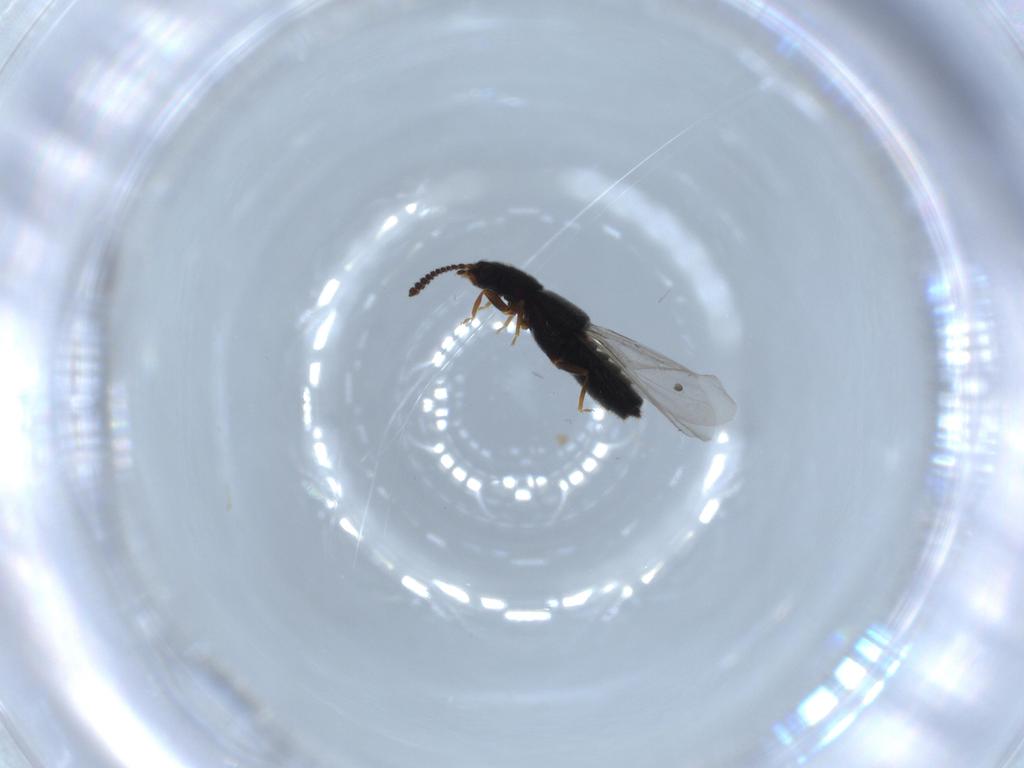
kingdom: Animalia
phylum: Arthropoda
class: Insecta
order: Coleoptera
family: Staphylinidae
